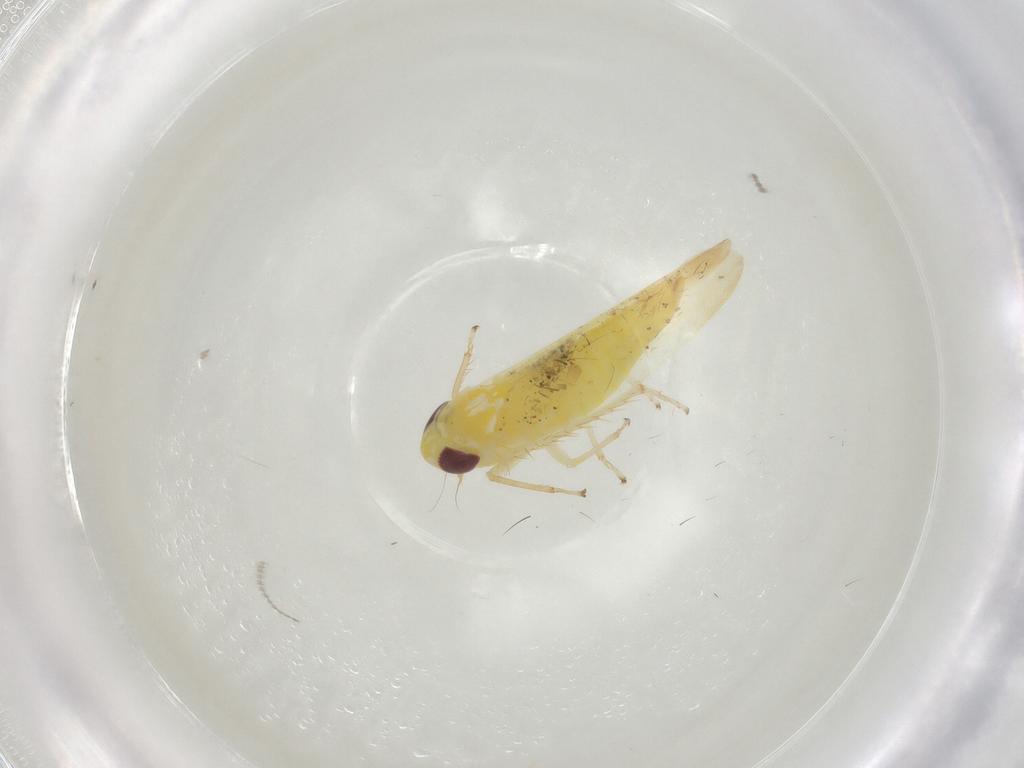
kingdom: Animalia
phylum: Arthropoda
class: Insecta
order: Hemiptera
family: Cicadellidae
